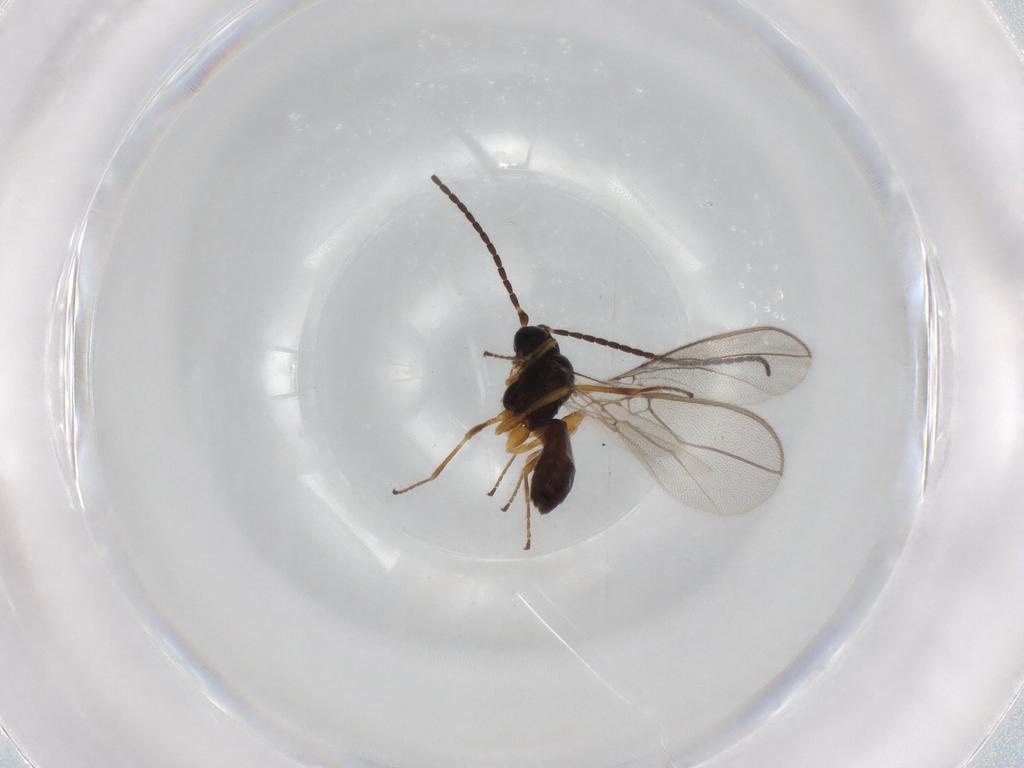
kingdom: Animalia
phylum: Arthropoda
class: Insecta
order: Hymenoptera
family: Braconidae
